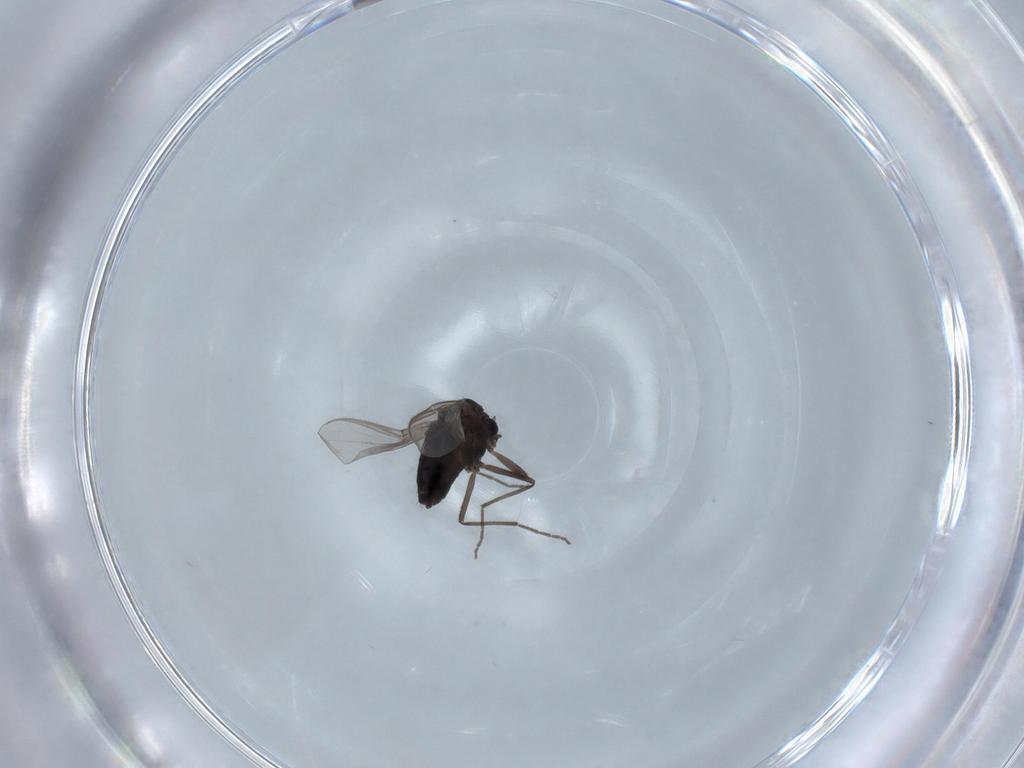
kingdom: Animalia
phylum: Arthropoda
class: Insecta
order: Diptera
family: Chironomidae
